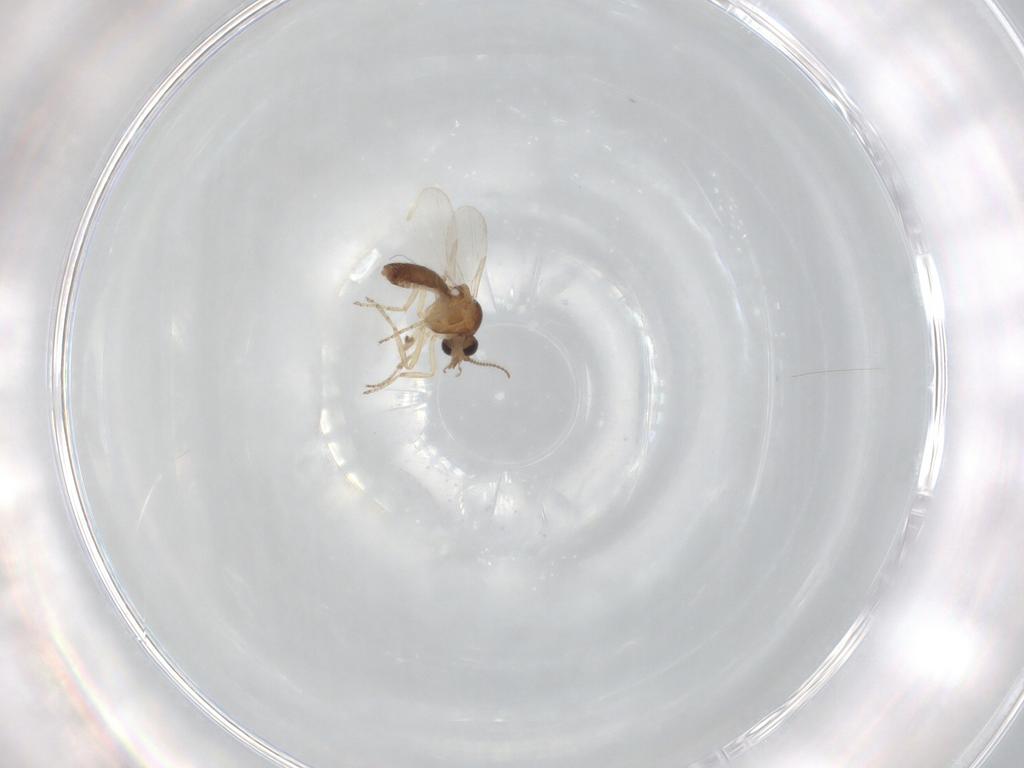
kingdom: Animalia
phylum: Arthropoda
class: Insecta
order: Diptera
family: Ceratopogonidae
